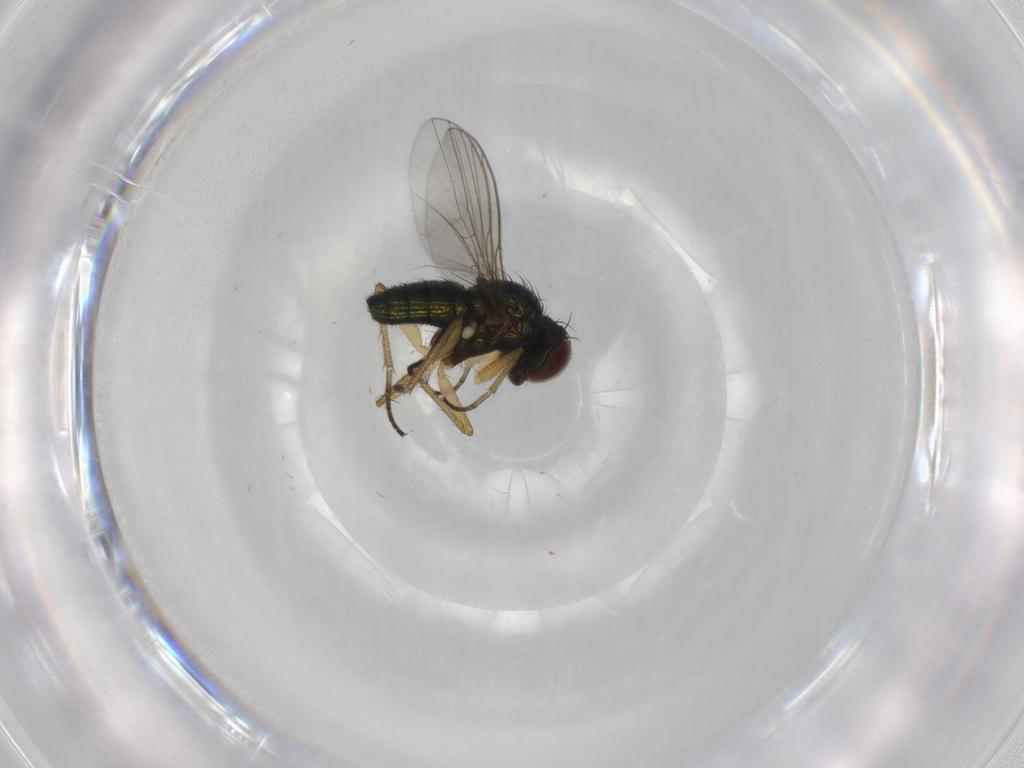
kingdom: Animalia
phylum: Arthropoda
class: Insecta
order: Diptera
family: Dolichopodidae
